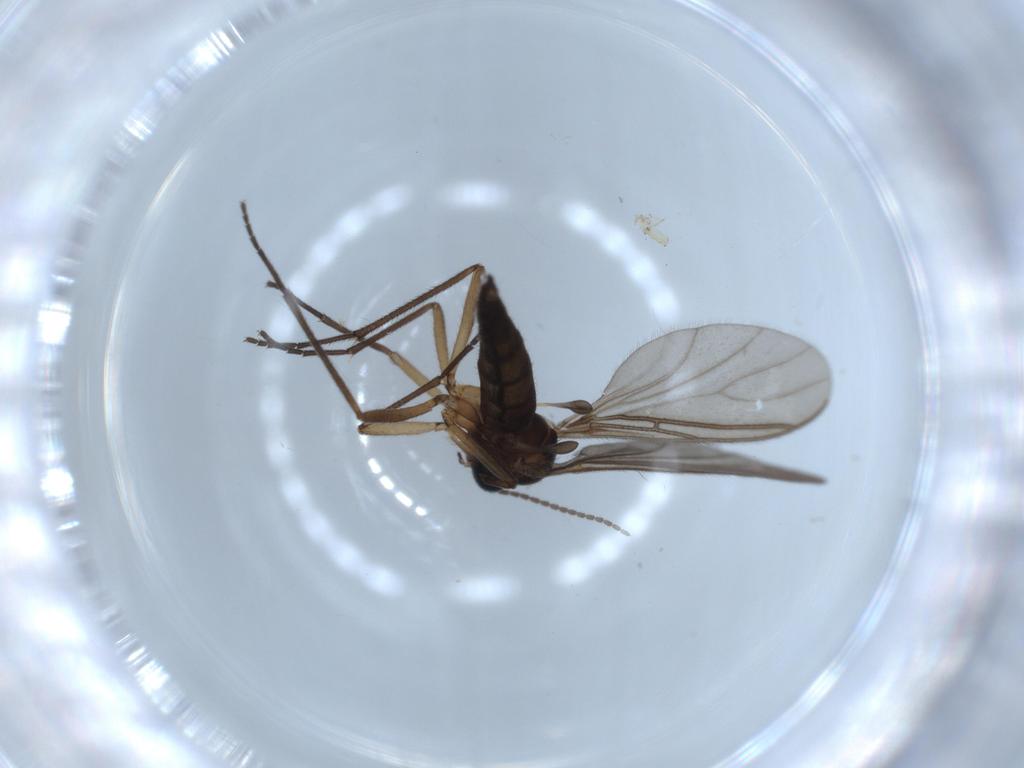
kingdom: Animalia
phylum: Arthropoda
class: Insecta
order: Diptera
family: Sciaridae
